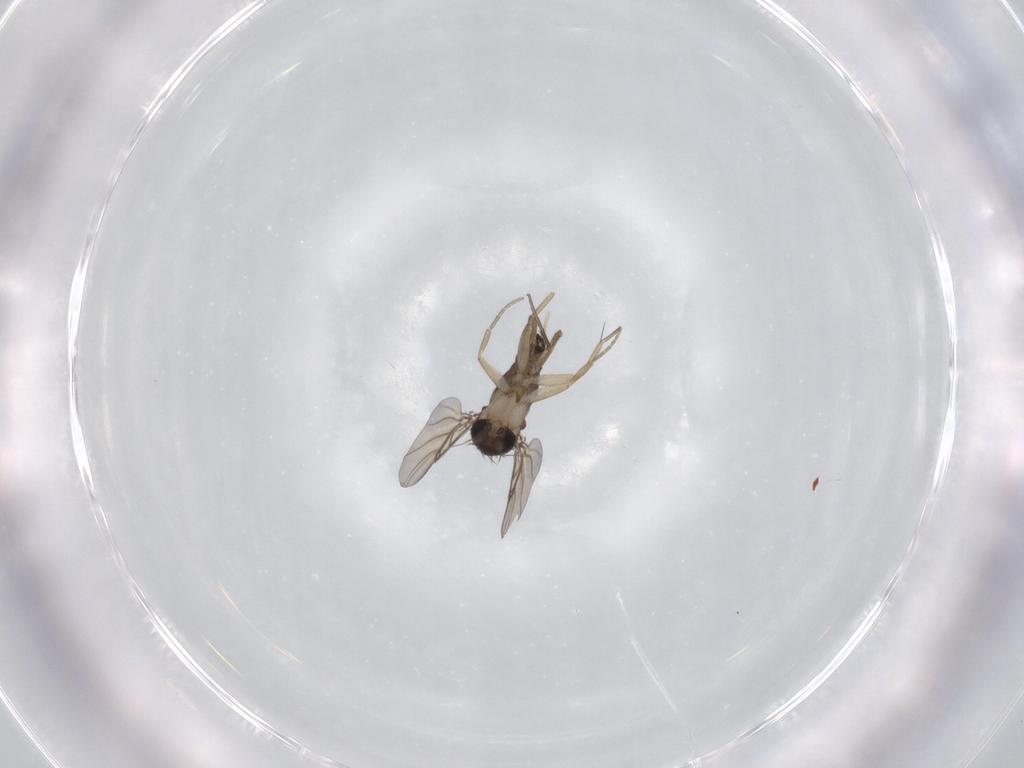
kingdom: Animalia
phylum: Arthropoda
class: Insecta
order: Diptera
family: Phoridae
